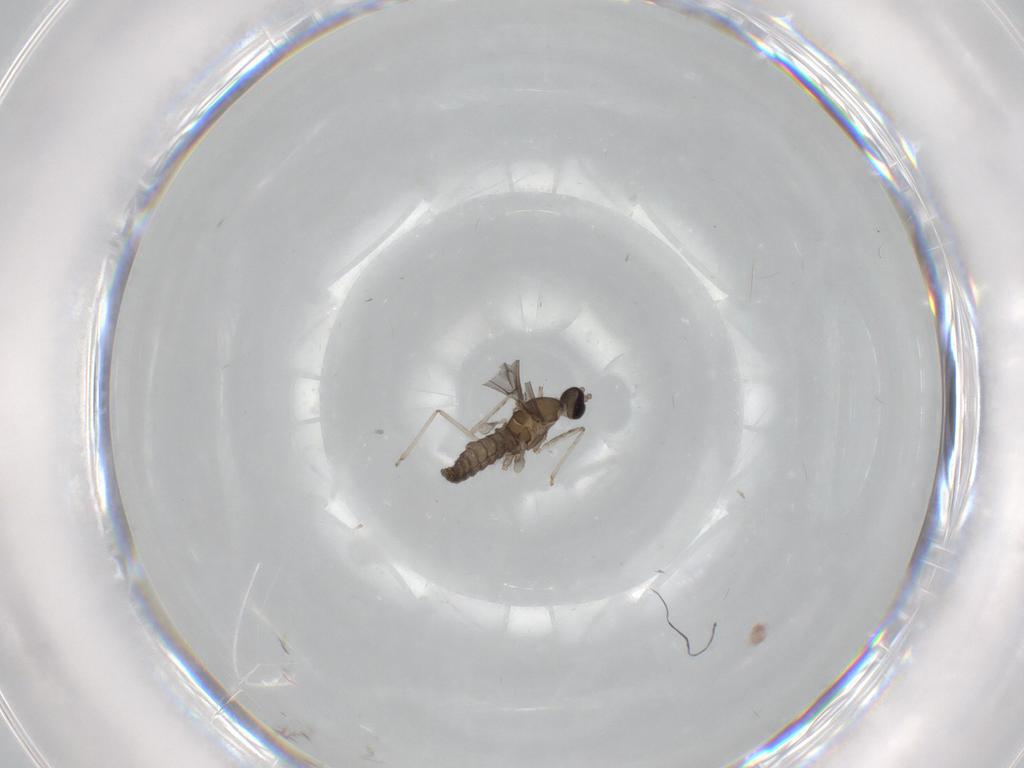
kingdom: Animalia
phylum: Arthropoda
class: Insecta
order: Diptera
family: Cecidomyiidae
